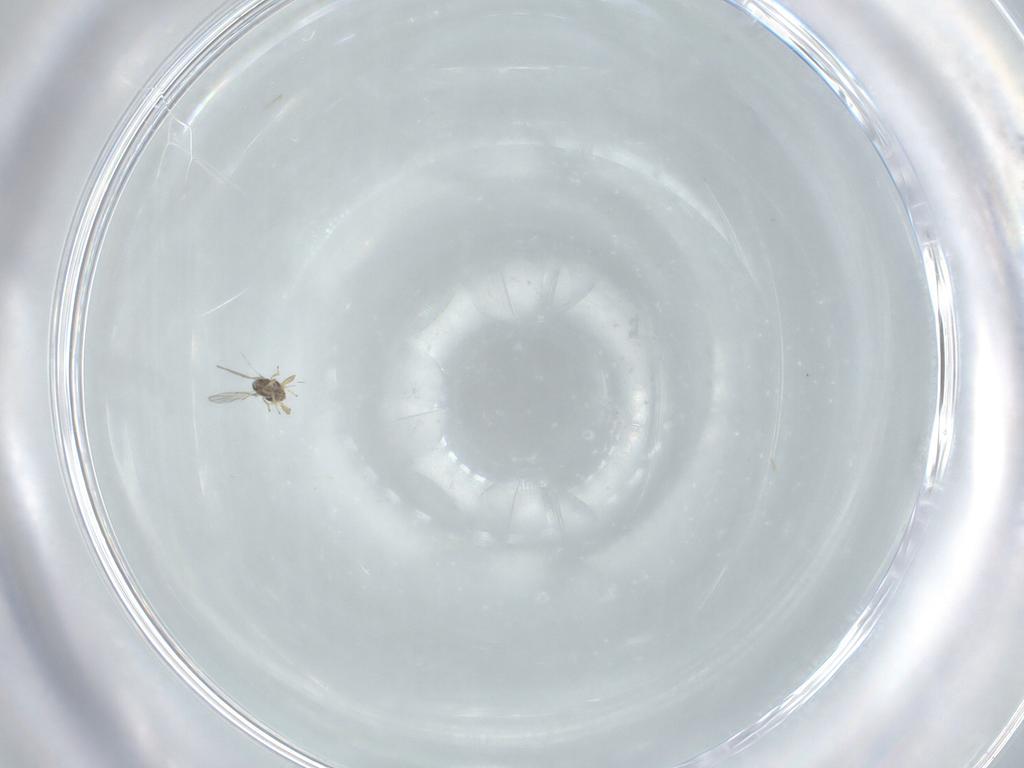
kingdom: Animalia
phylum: Arthropoda
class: Insecta
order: Hymenoptera
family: Encyrtidae
